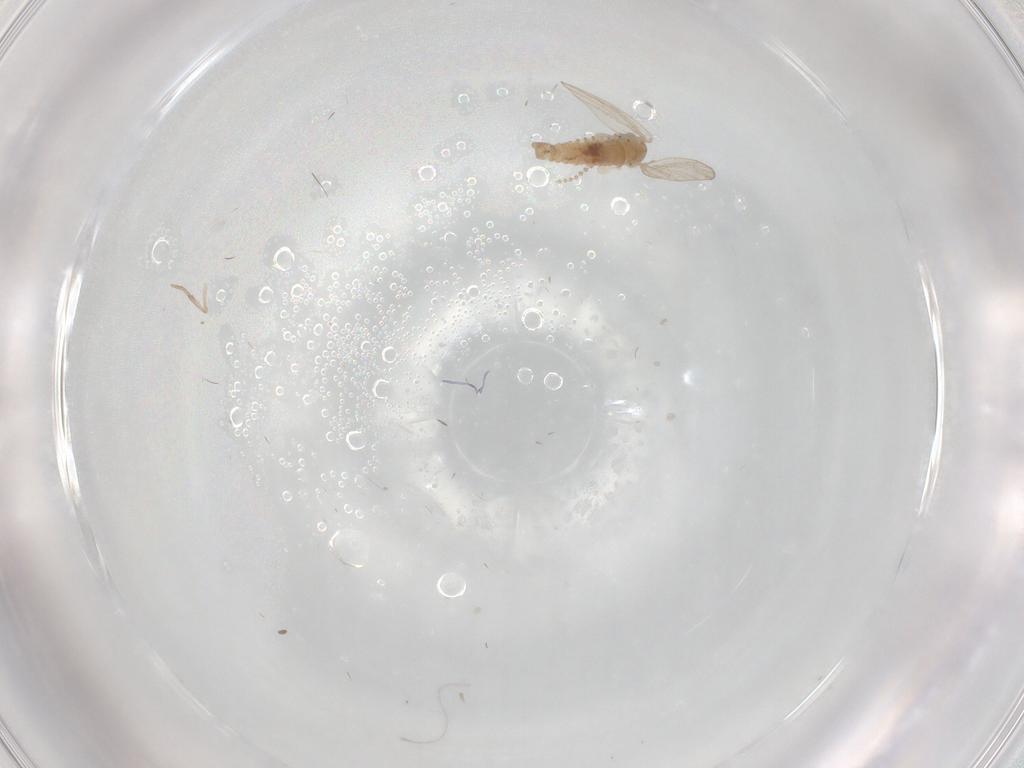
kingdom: Animalia
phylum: Arthropoda
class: Insecta
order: Diptera
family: Psychodidae
